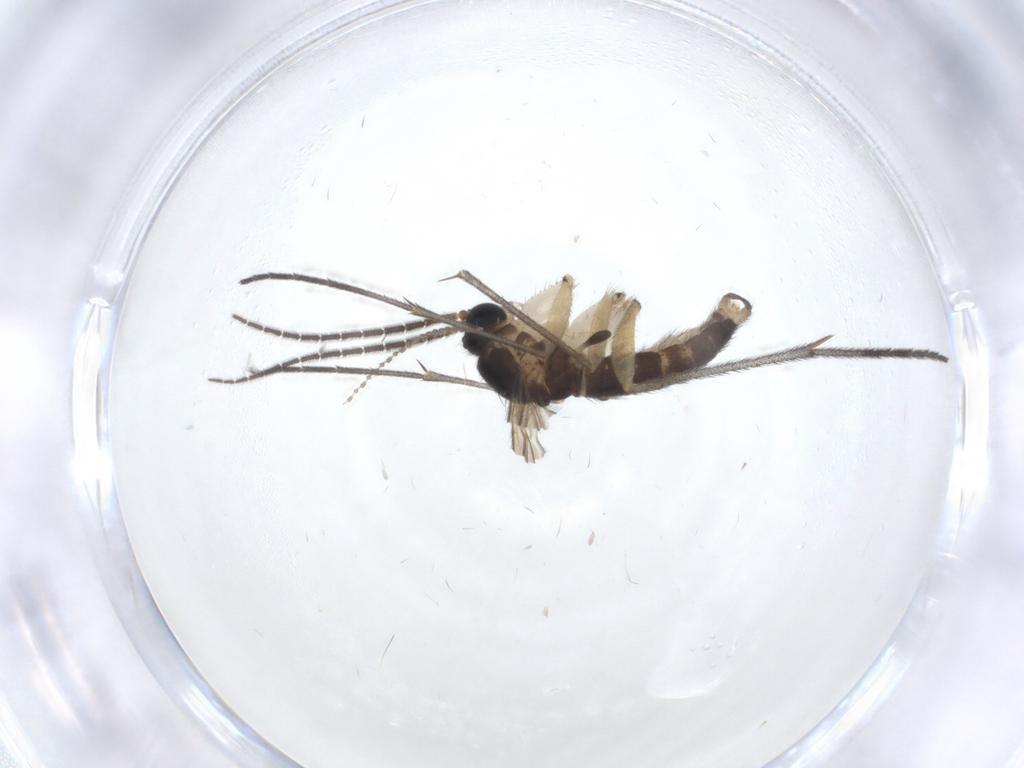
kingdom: Animalia
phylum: Arthropoda
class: Insecta
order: Diptera
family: Sciaridae
